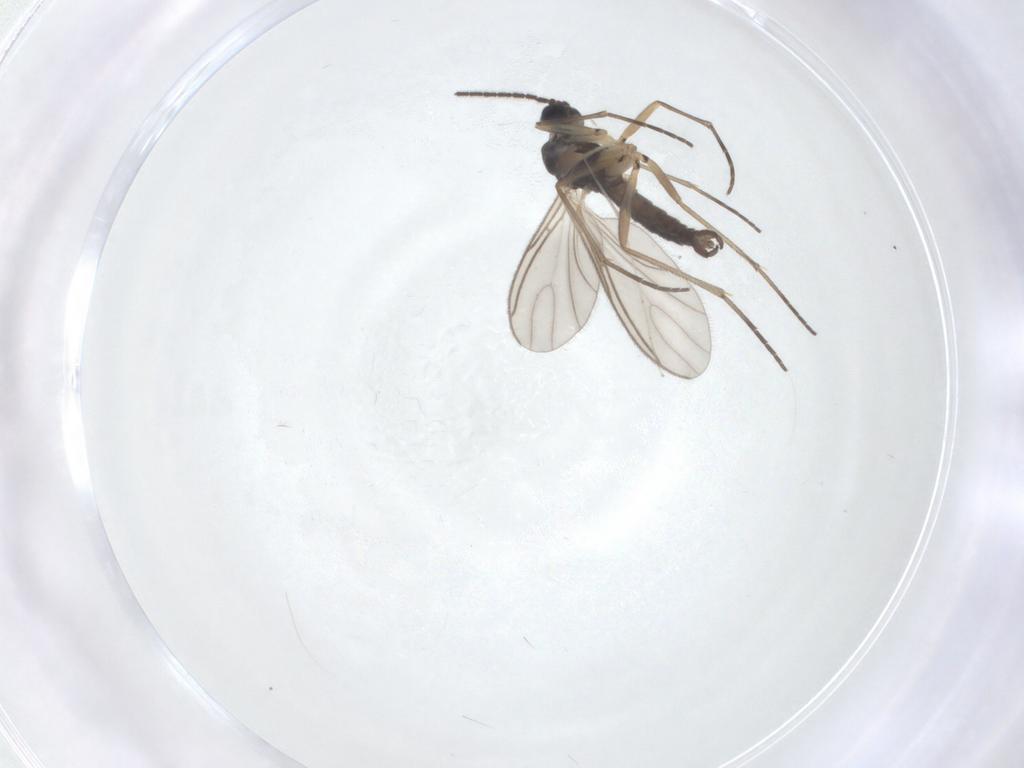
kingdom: Animalia
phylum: Arthropoda
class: Insecta
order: Diptera
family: Sciaridae
